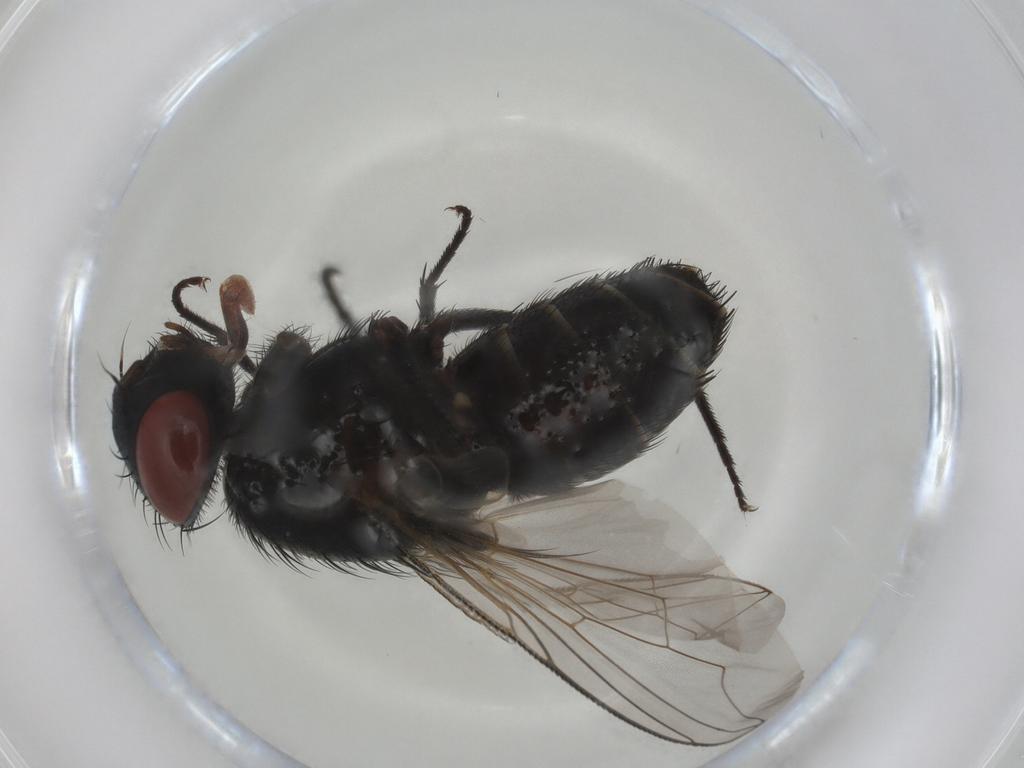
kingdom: Animalia
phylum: Arthropoda
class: Insecta
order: Diptera
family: Sarcophagidae
